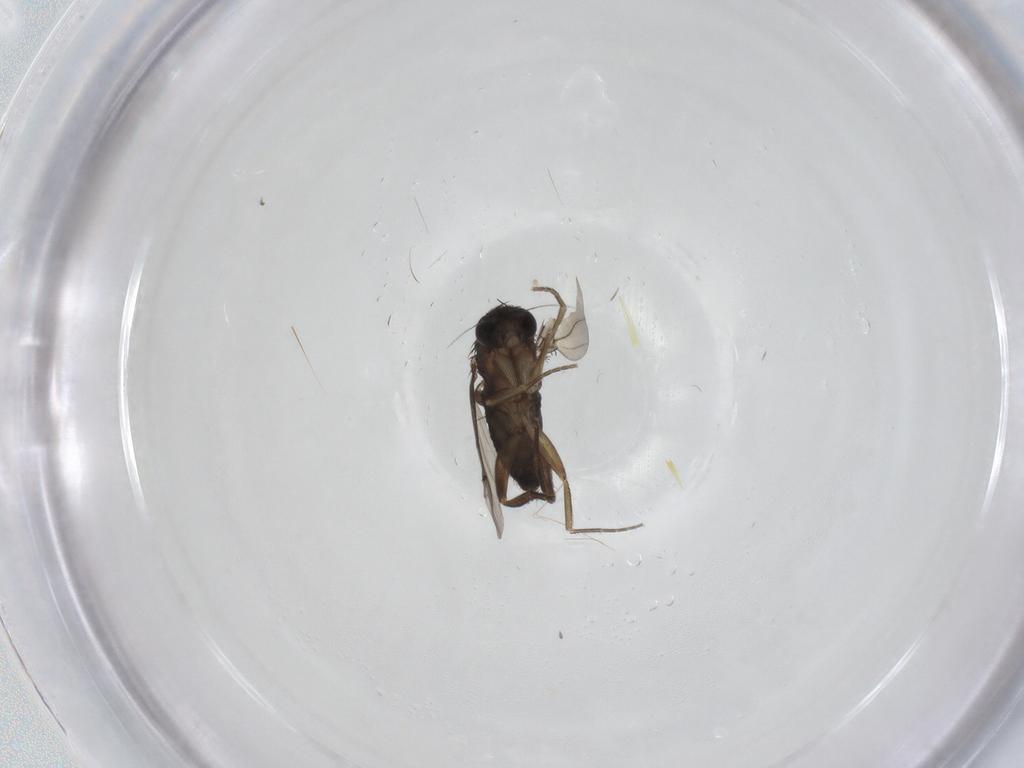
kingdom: Animalia
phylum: Arthropoda
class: Insecta
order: Diptera
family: Phoridae
